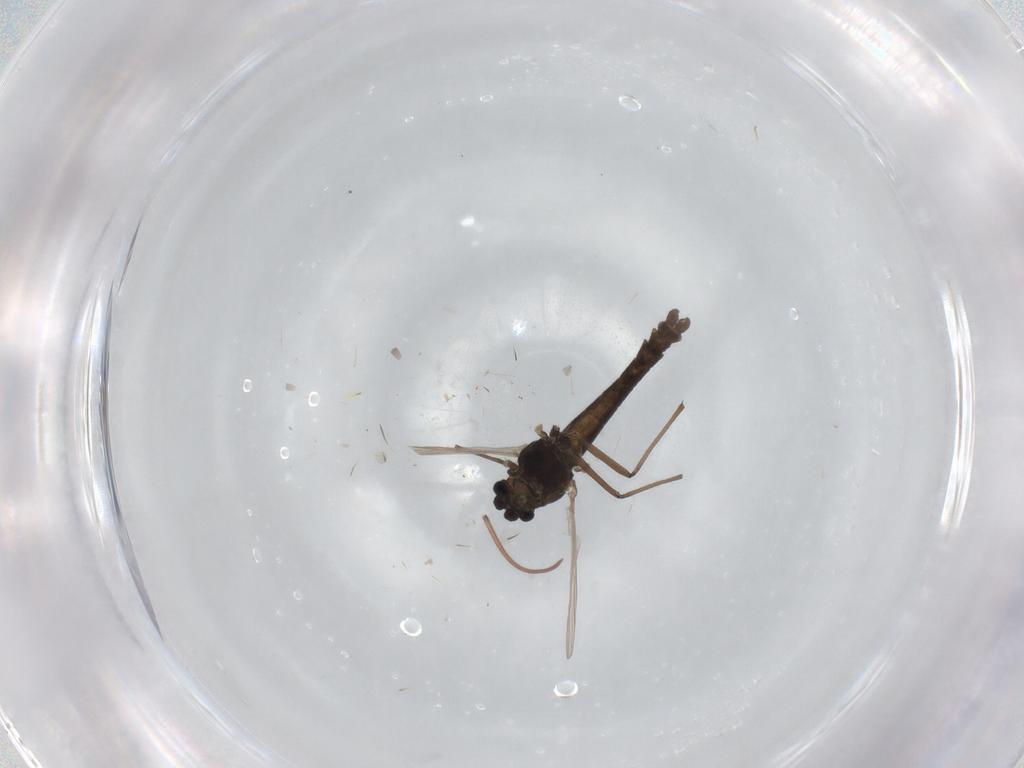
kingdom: Animalia
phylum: Arthropoda
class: Insecta
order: Diptera
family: Chironomidae
